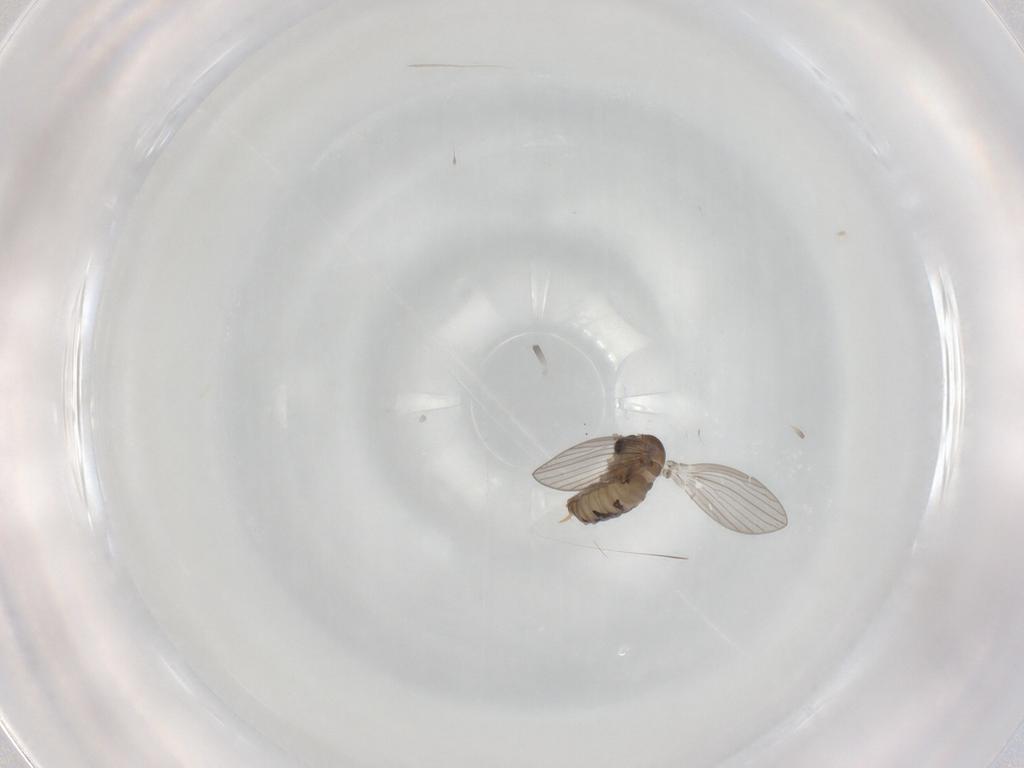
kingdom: Animalia
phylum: Arthropoda
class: Insecta
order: Diptera
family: Psychodidae
